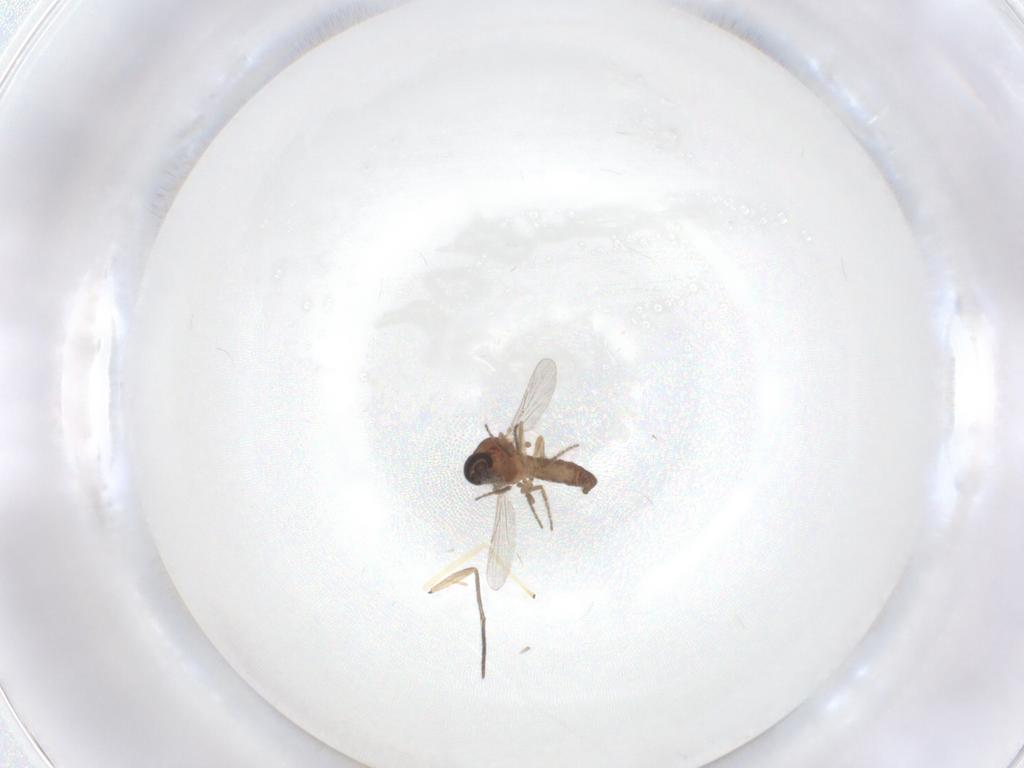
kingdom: Animalia
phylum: Arthropoda
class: Insecta
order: Diptera
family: Ceratopogonidae
